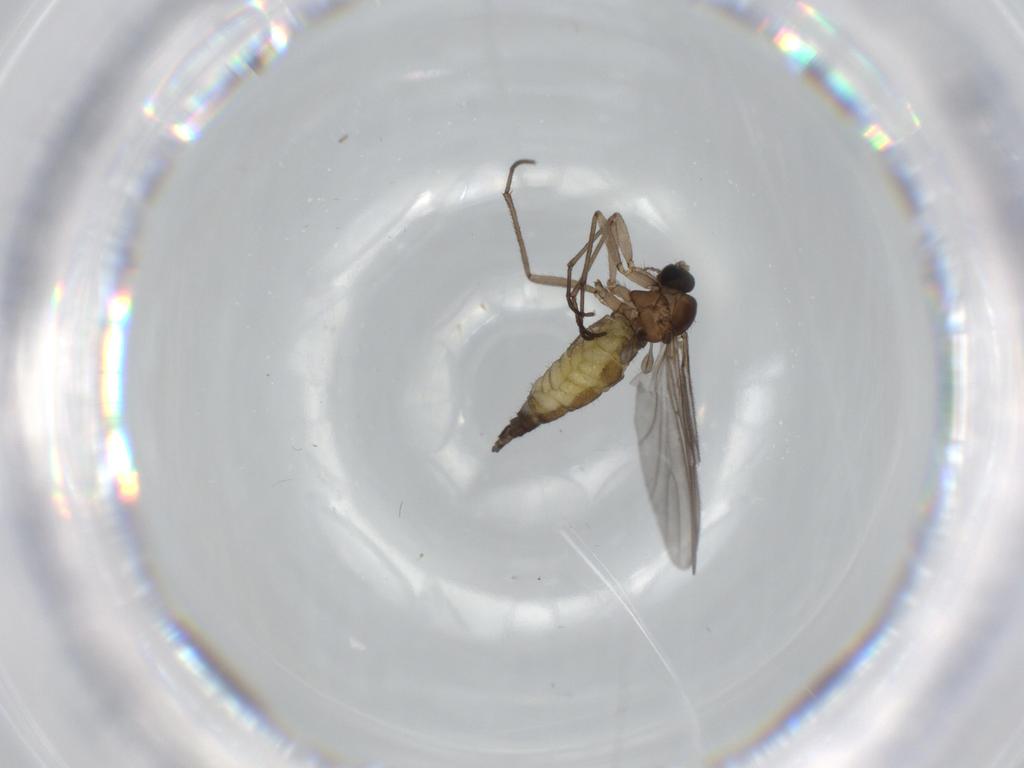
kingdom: Animalia
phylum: Arthropoda
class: Insecta
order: Diptera
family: Sciaridae
